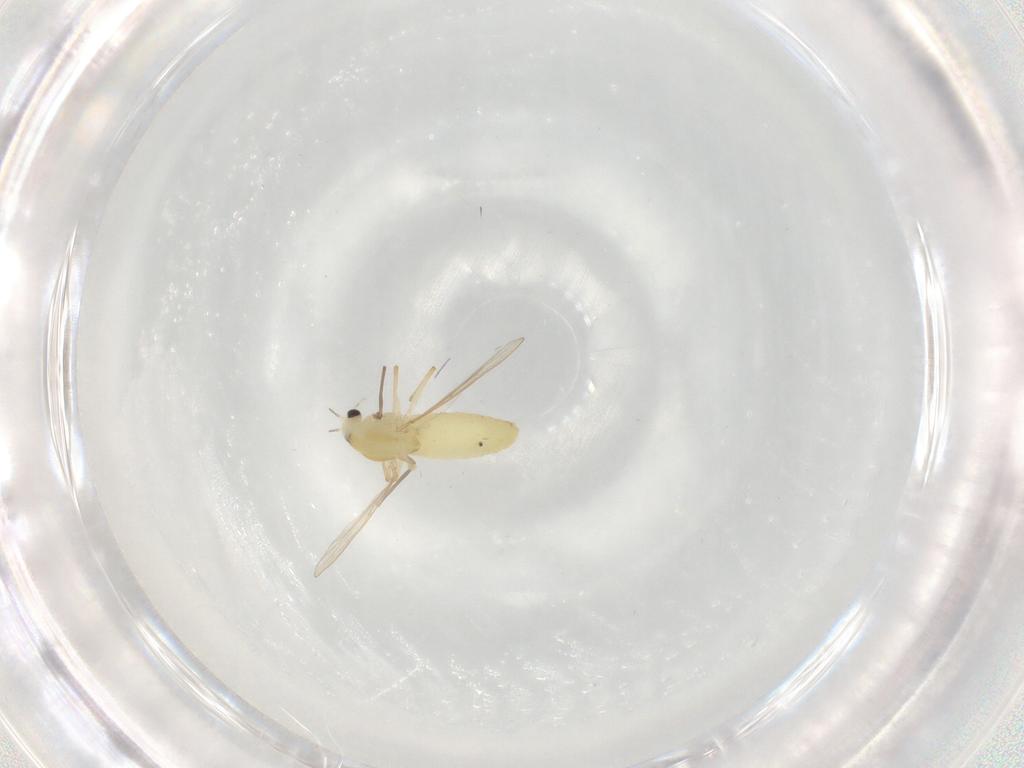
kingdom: Animalia
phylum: Arthropoda
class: Insecta
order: Diptera
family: Chironomidae
